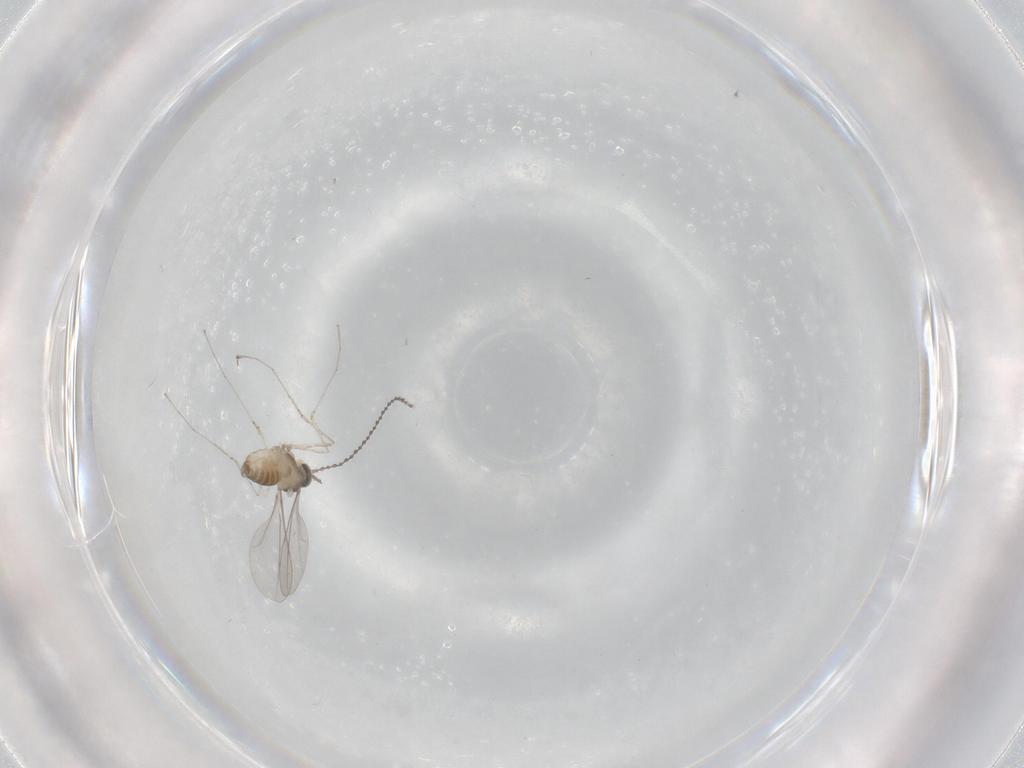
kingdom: Animalia
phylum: Arthropoda
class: Insecta
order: Diptera
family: Cecidomyiidae
